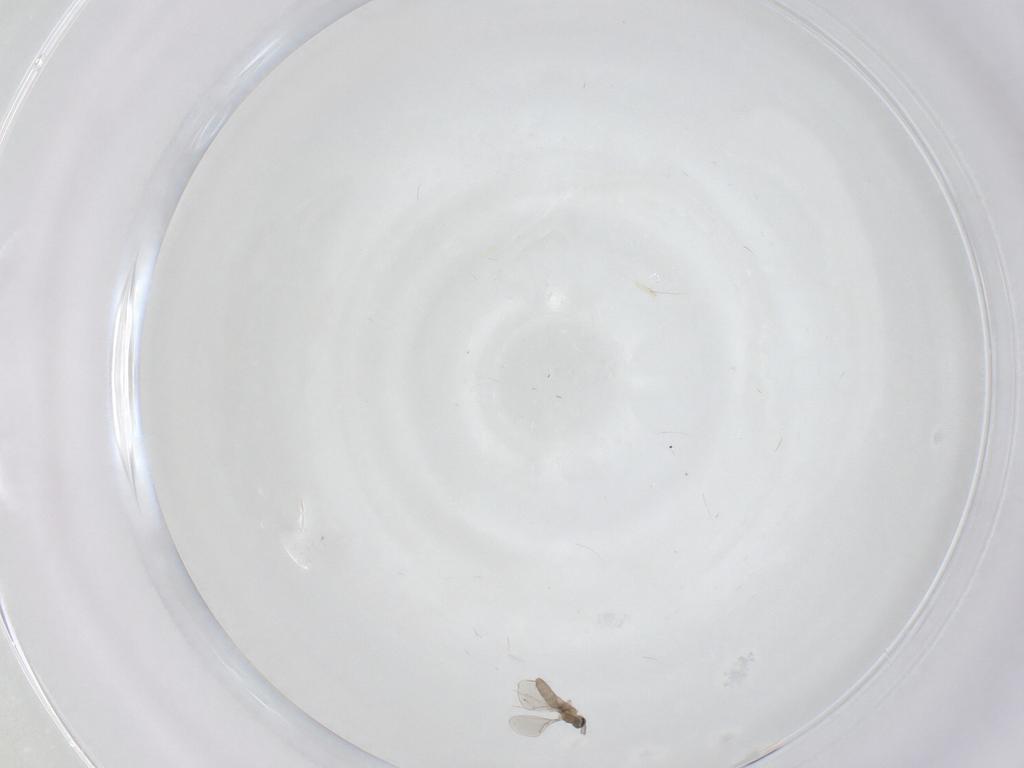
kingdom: Animalia
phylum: Arthropoda
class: Insecta
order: Diptera
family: Cecidomyiidae
